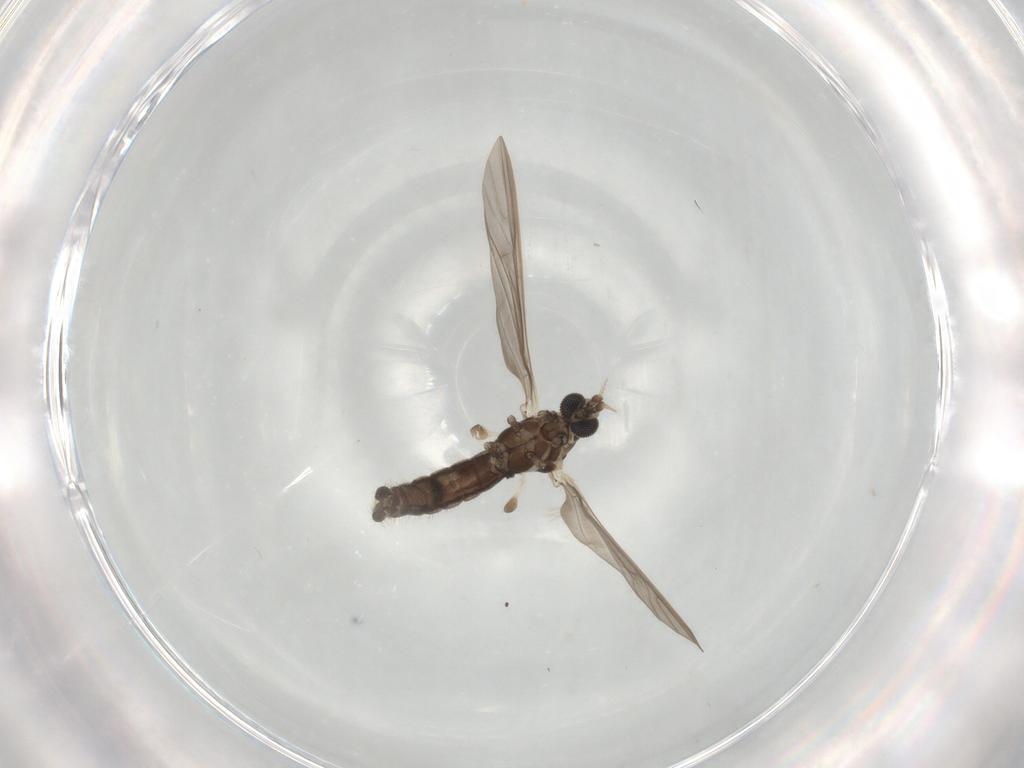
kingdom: Animalia
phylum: Arthropoda
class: Insecta
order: Diptera
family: Limoniidae
